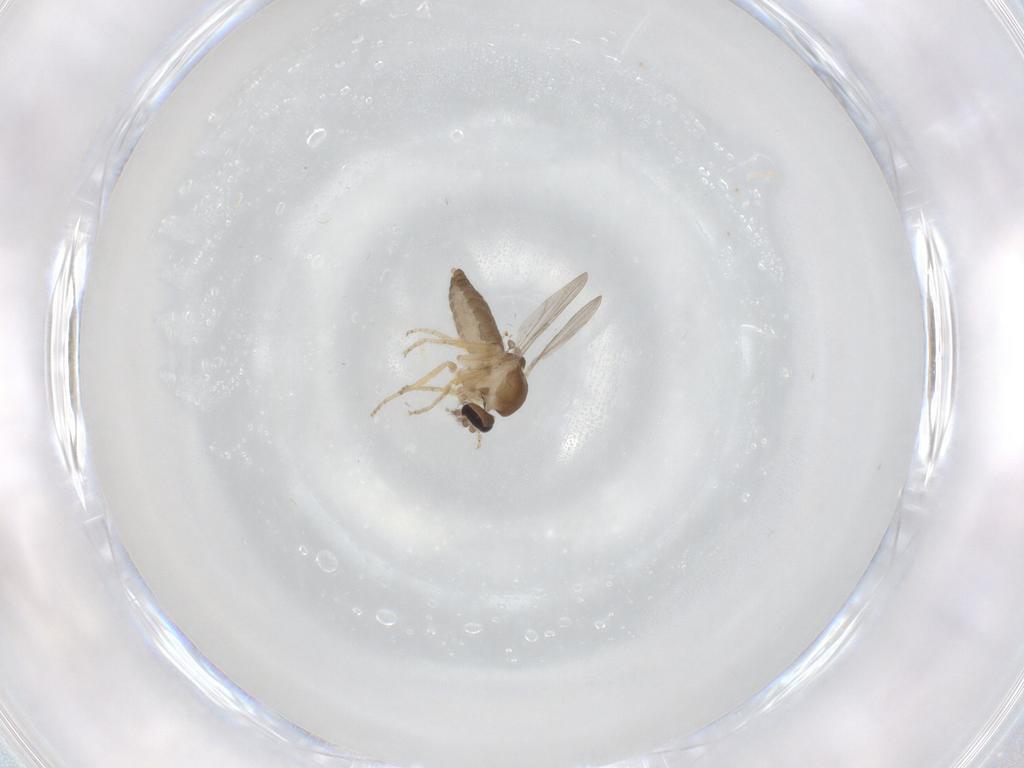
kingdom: Animalia
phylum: Arthropoda
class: Insecta
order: Diptera
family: Ceratopogonidae
